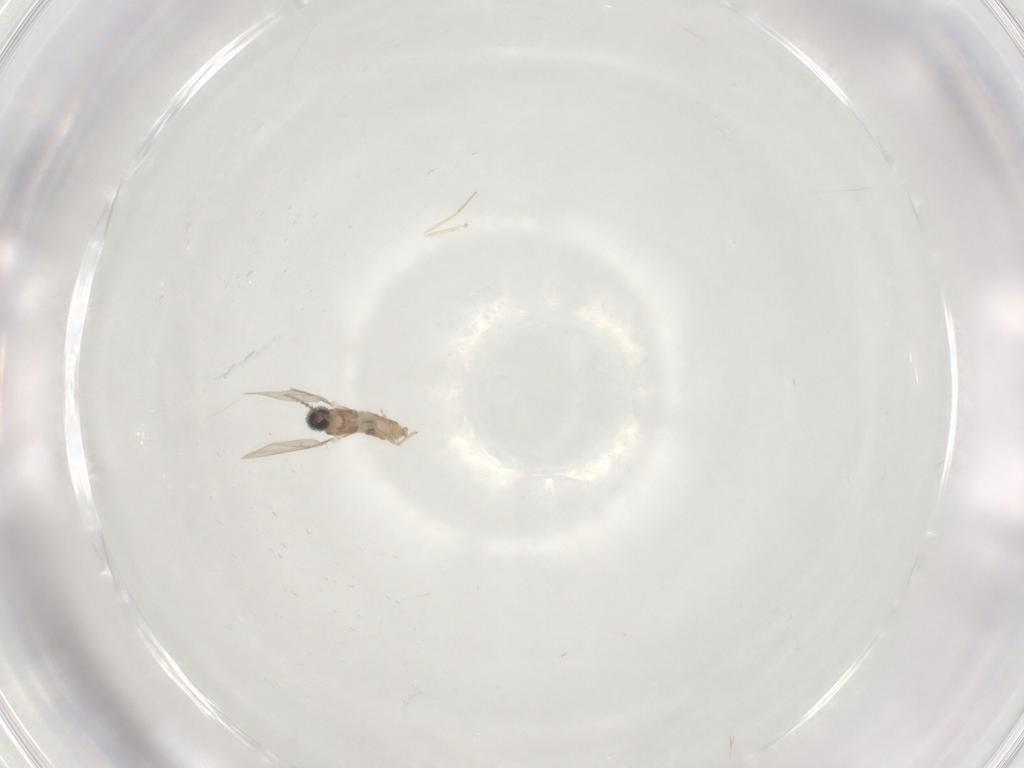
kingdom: Animalia
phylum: Arthropoda
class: Insecta
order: Diptera
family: Cecidomyiidae
